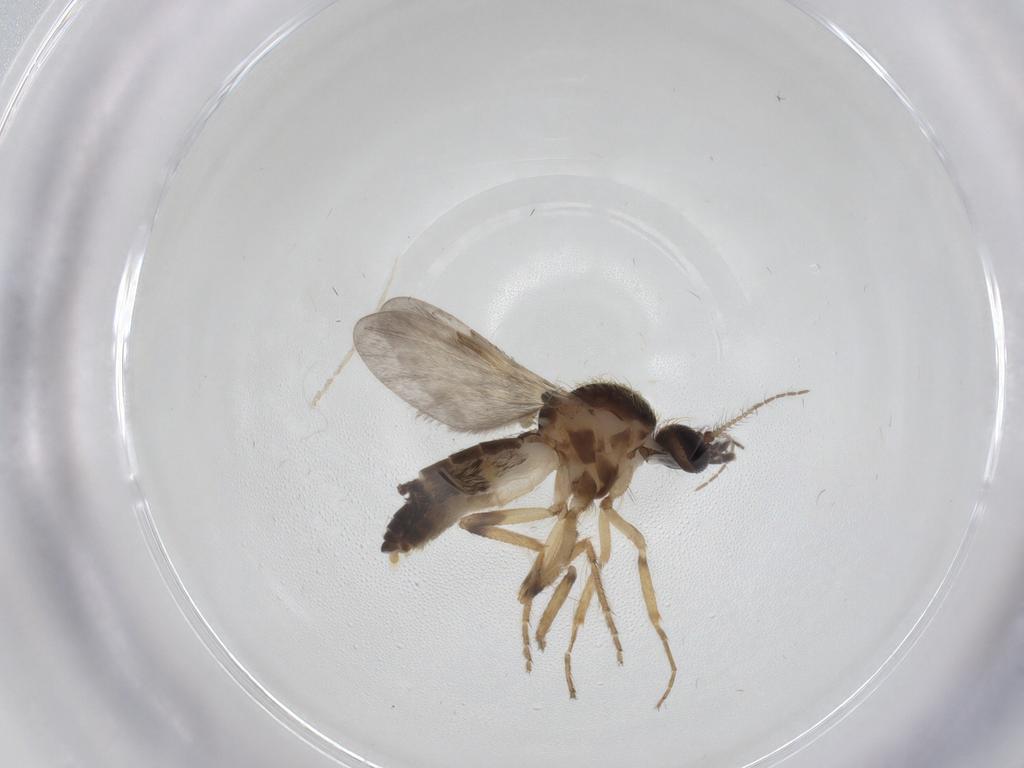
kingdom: Animalia
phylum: Arthropoda
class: Insecta
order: Diptera
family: Ceratopogonidae
